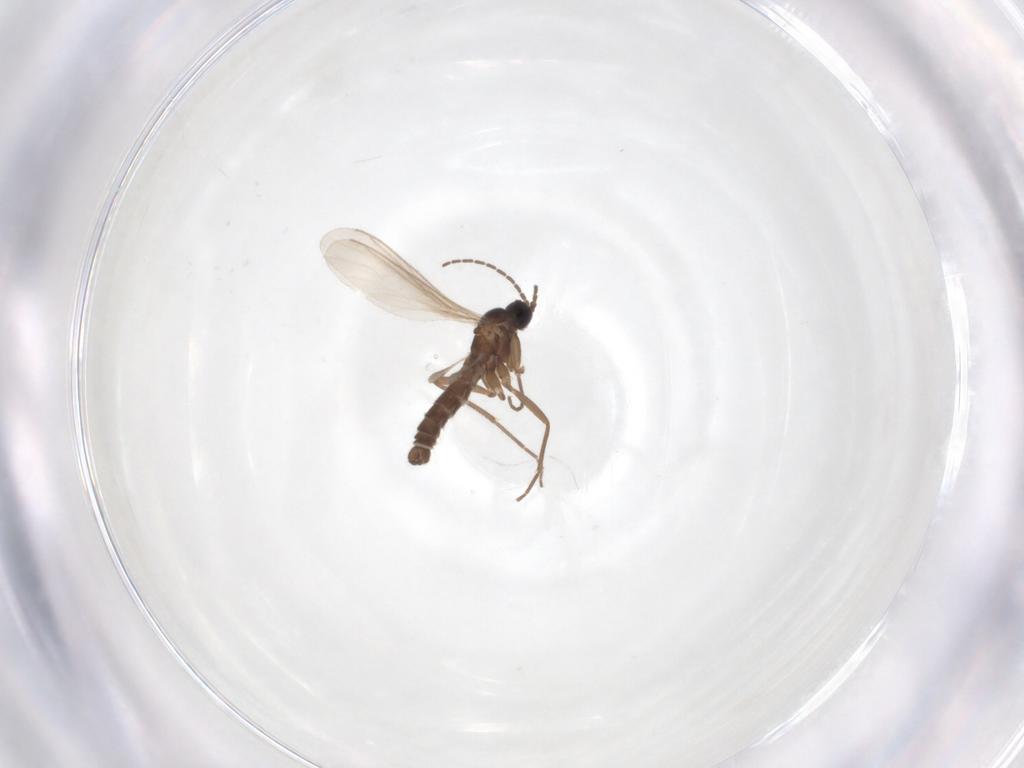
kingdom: Animalia
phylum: Arthropoda
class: Insecta
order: Diptera
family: Sciaridae
